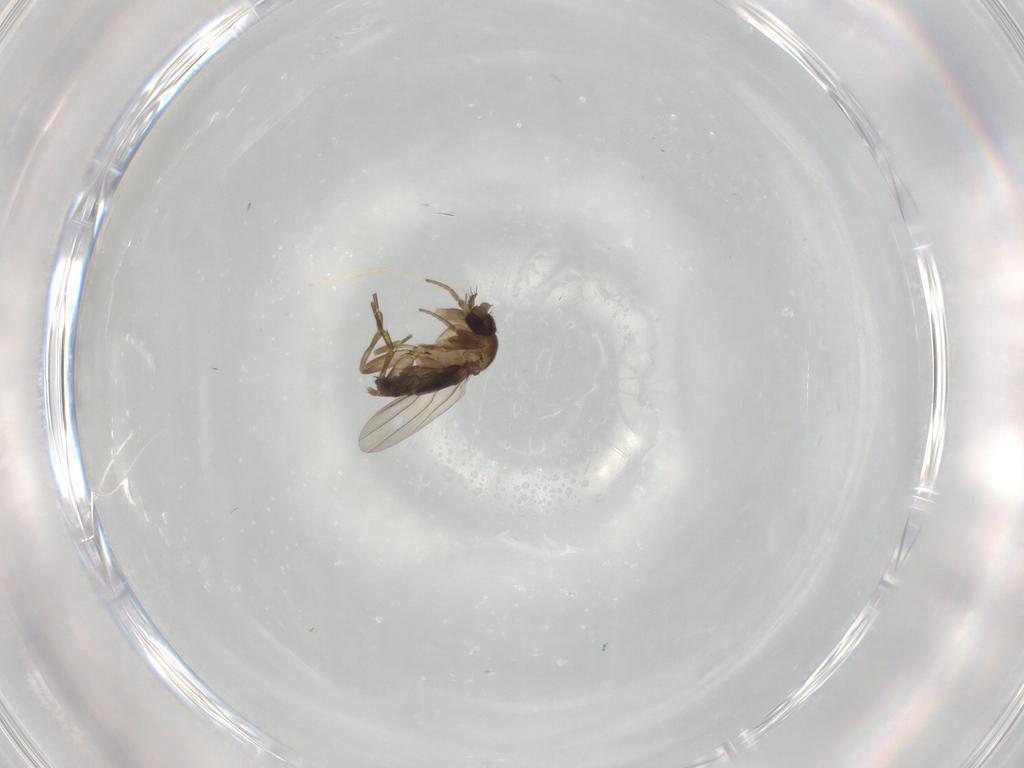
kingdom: Animalia
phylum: Arthropoda
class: Insecta
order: Diptera
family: Phoridae
